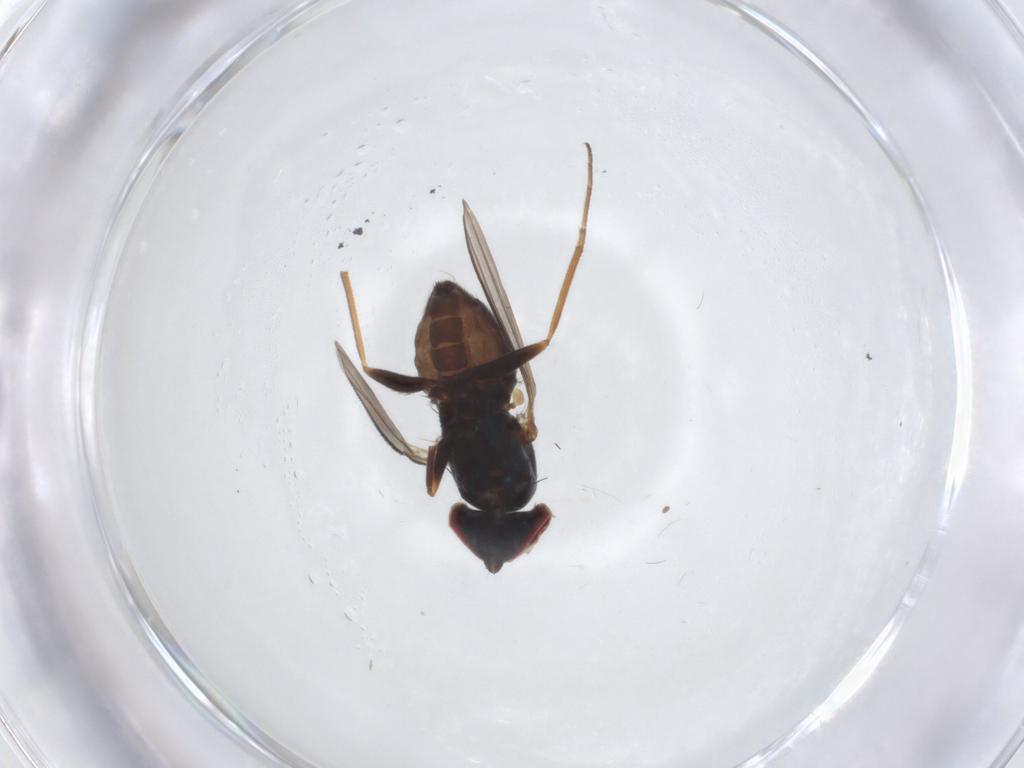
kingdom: Animalia
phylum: Arthropoda
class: Insecta
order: Diptera
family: Dolichopodidae
